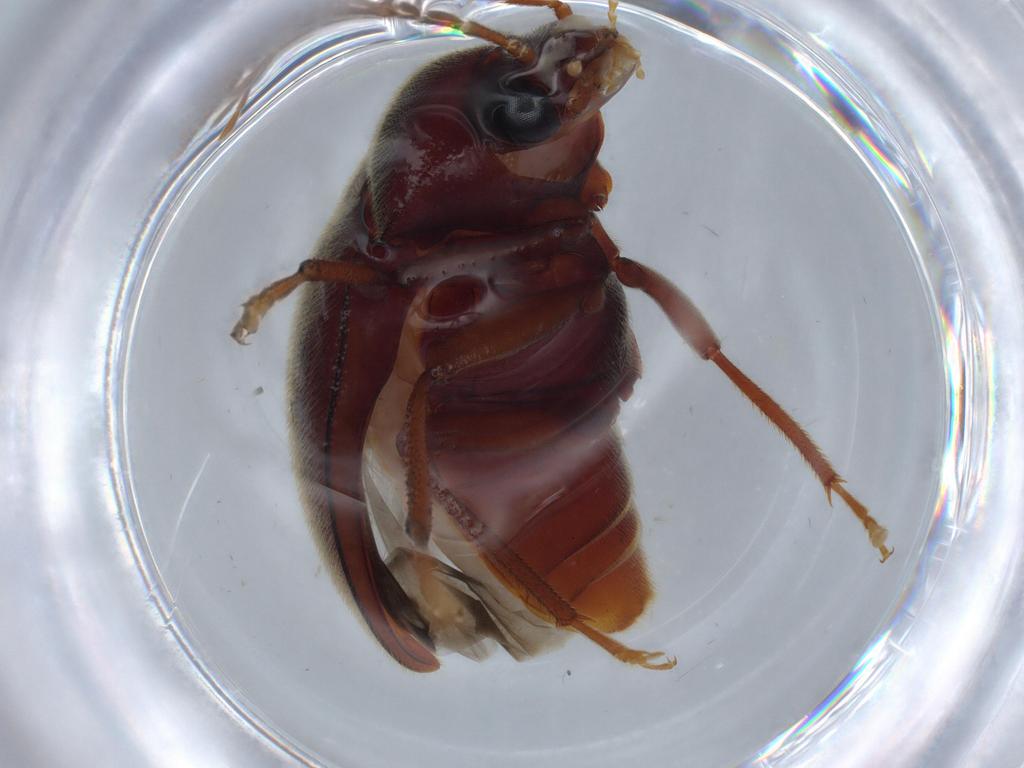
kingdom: Animalia
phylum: Arthropoda
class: Insecta
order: Coleoptera
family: Ptilodactylidae
